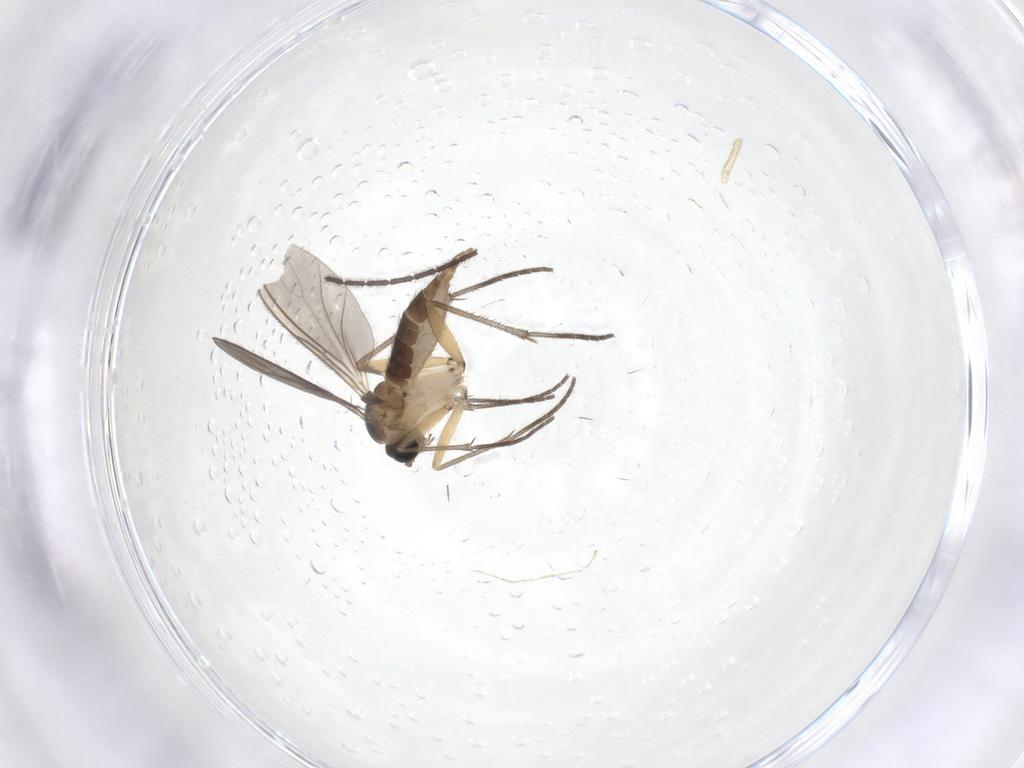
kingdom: Animalia
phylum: Arthropoda
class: Insecta
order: Diptera
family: Sciaridae
